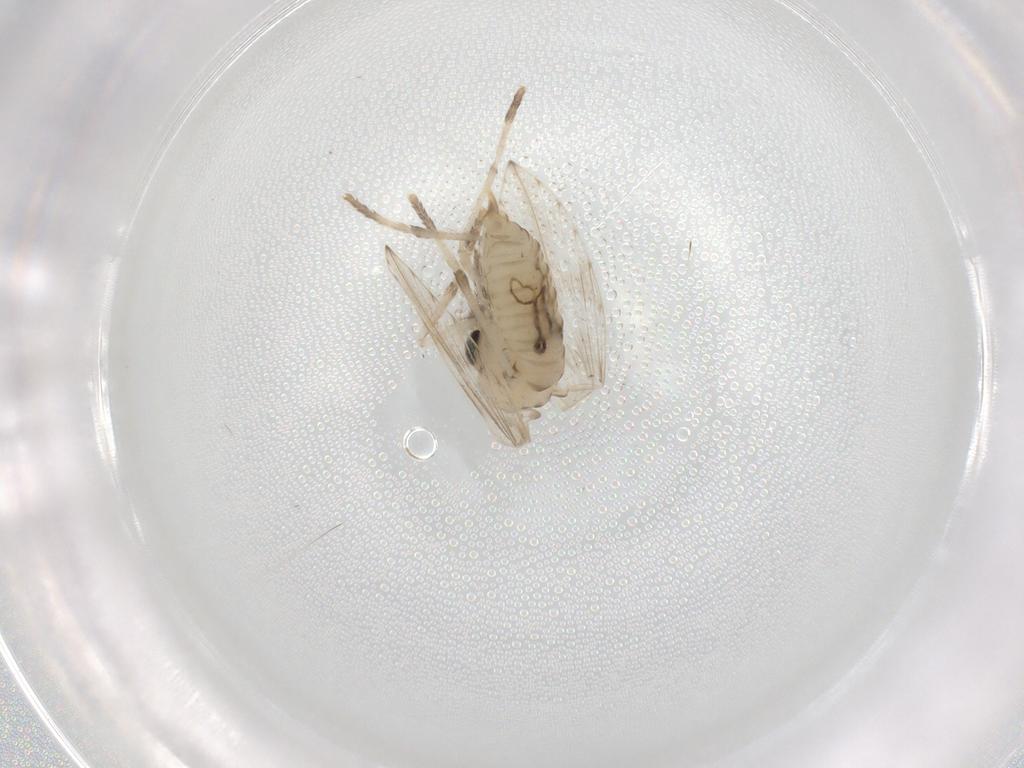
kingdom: Animalia
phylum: Arthropoda
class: Insecta
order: Diptera
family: Psychodidae
